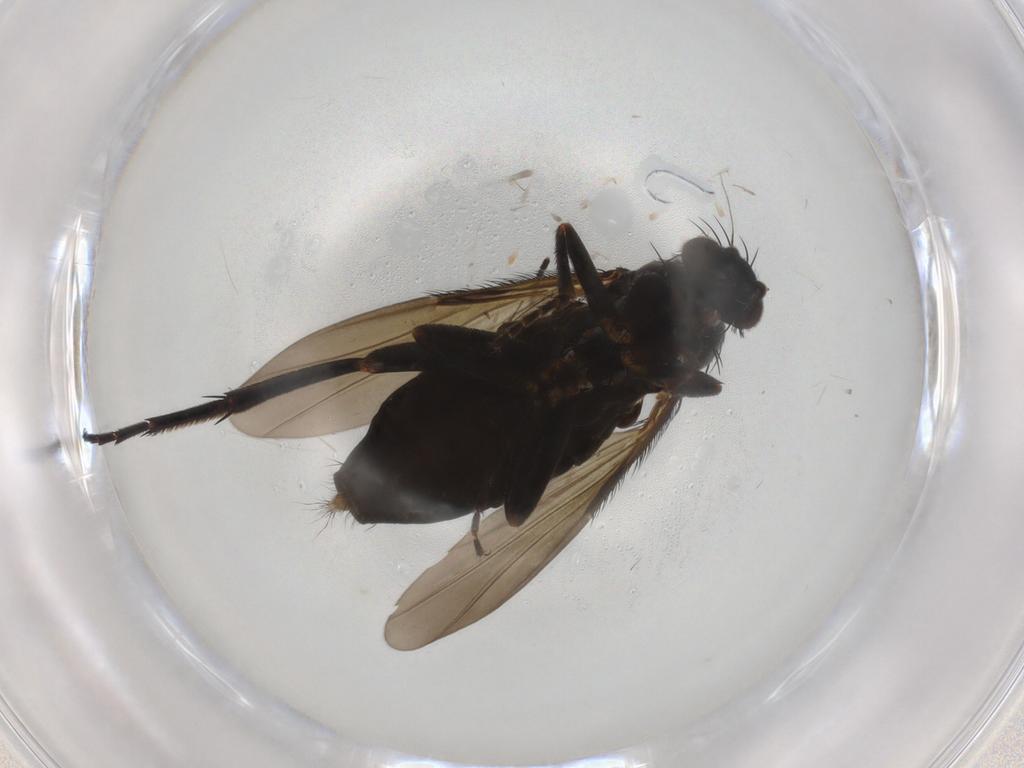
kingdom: Animalia
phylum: Arthropoda
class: Insecta
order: Diptera
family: Phoridae
